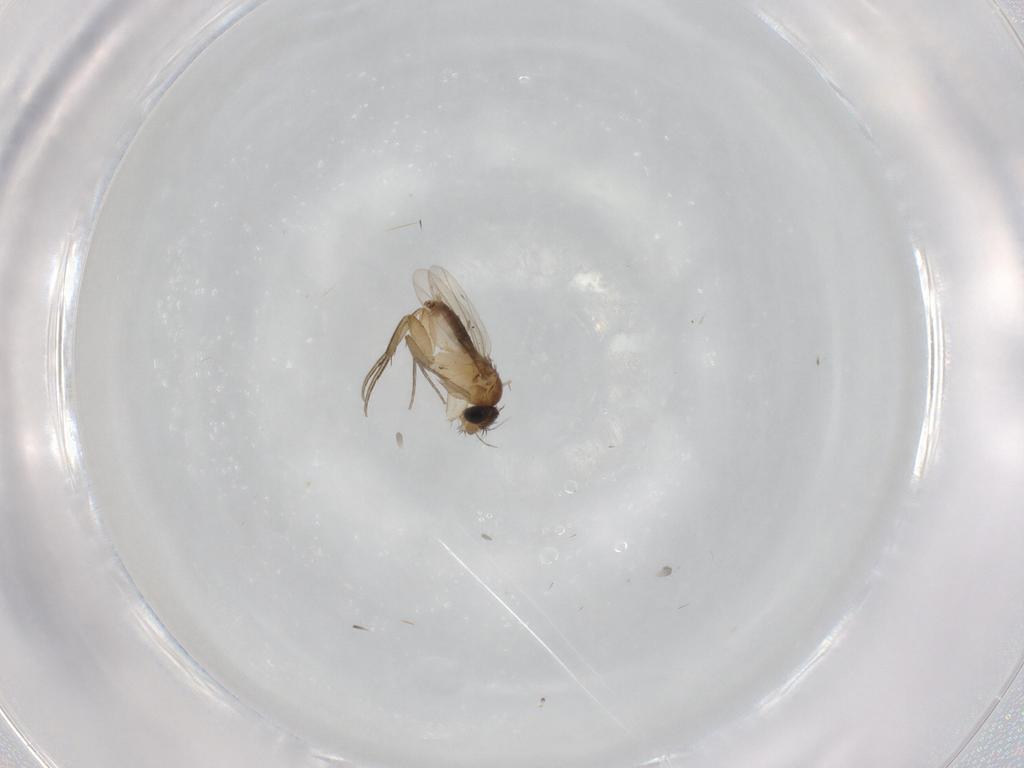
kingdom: Animalia
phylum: Arthropoda
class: Insecta
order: Diptera
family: Phoridae
